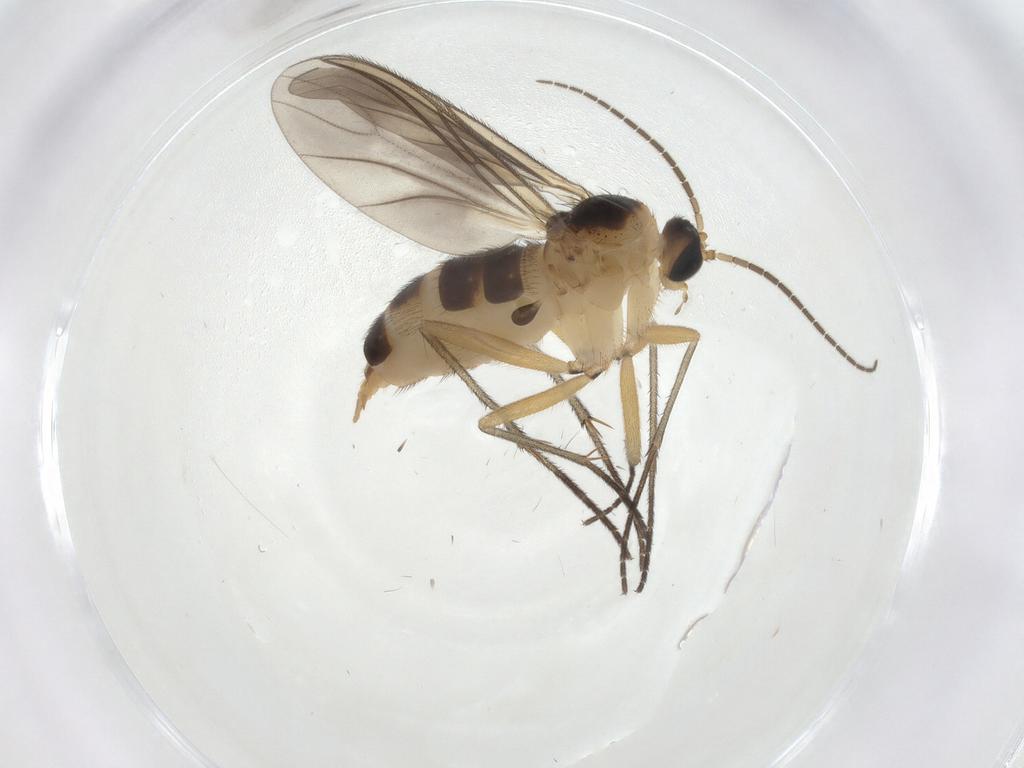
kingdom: Animalia
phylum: Arthropoda
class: Insecta
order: Diptera
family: Sciaridae
